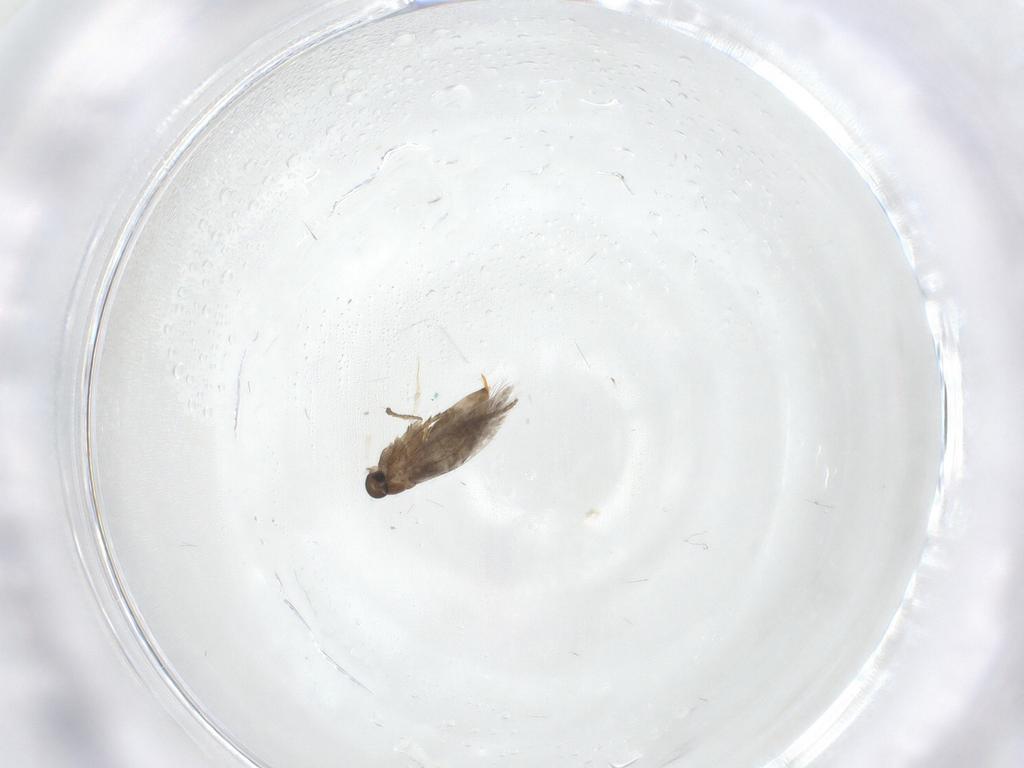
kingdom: Animalia
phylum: Arthropoda
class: Insecta
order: Lepidoptera
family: Heliozelidae
